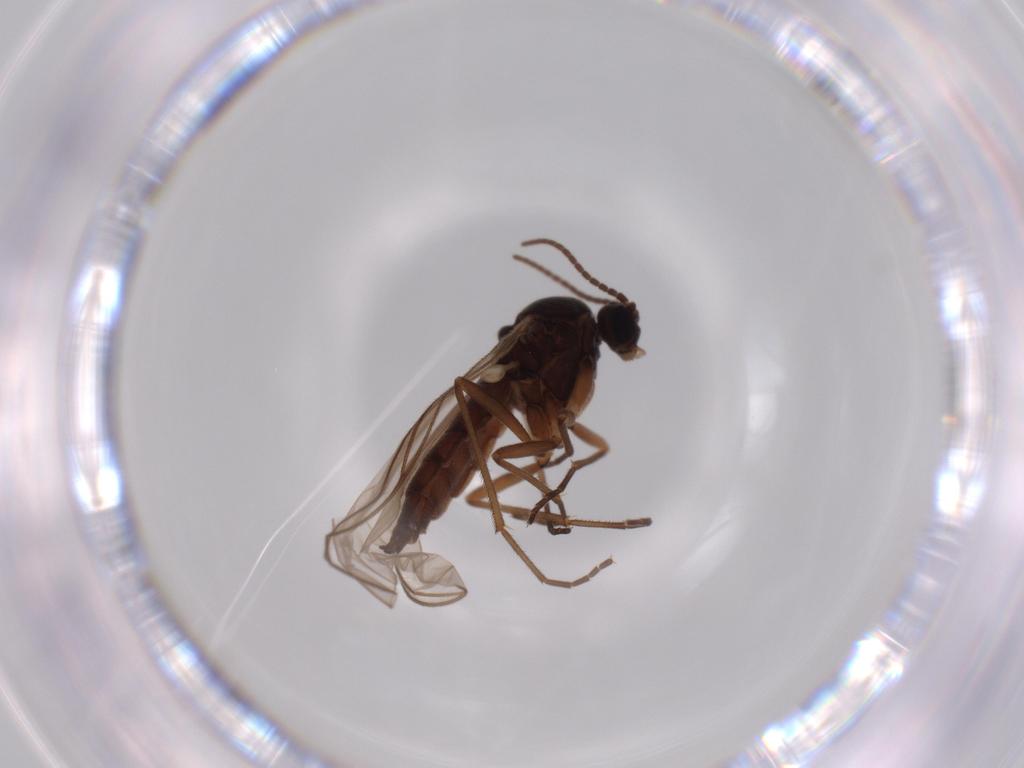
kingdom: Animalia
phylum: Arthropoda
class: Insecta
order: Diptera
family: Sciaridae
